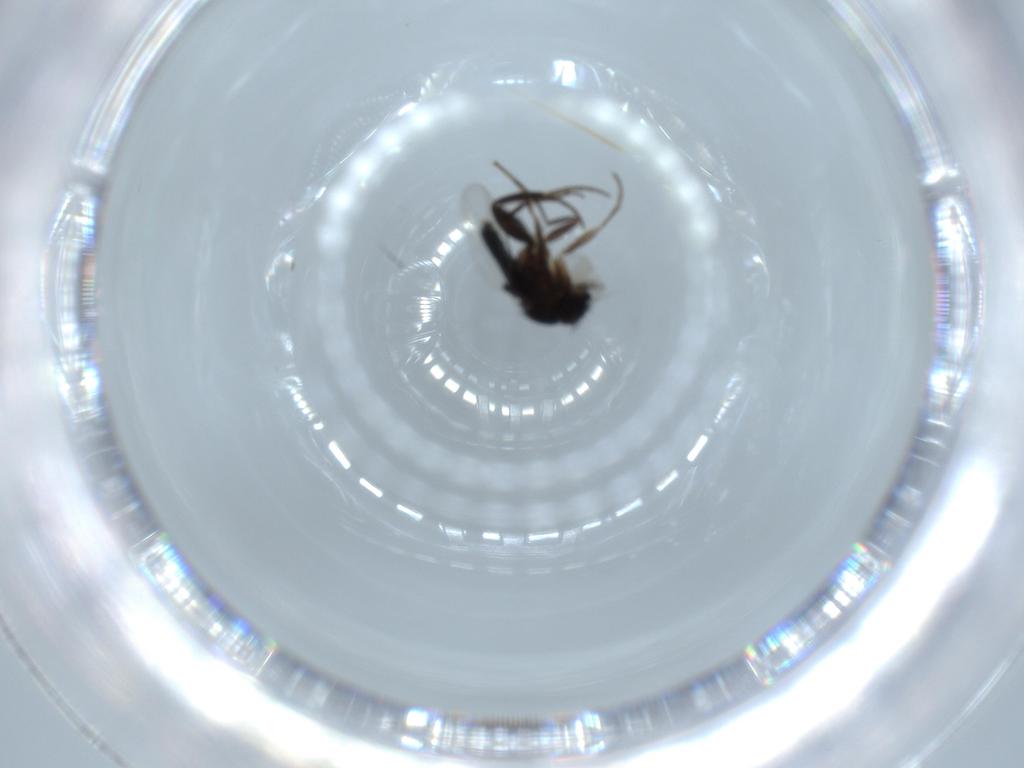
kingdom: Animalia
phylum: Arthropoda
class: Insecta
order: Diptera
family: Phoridae
